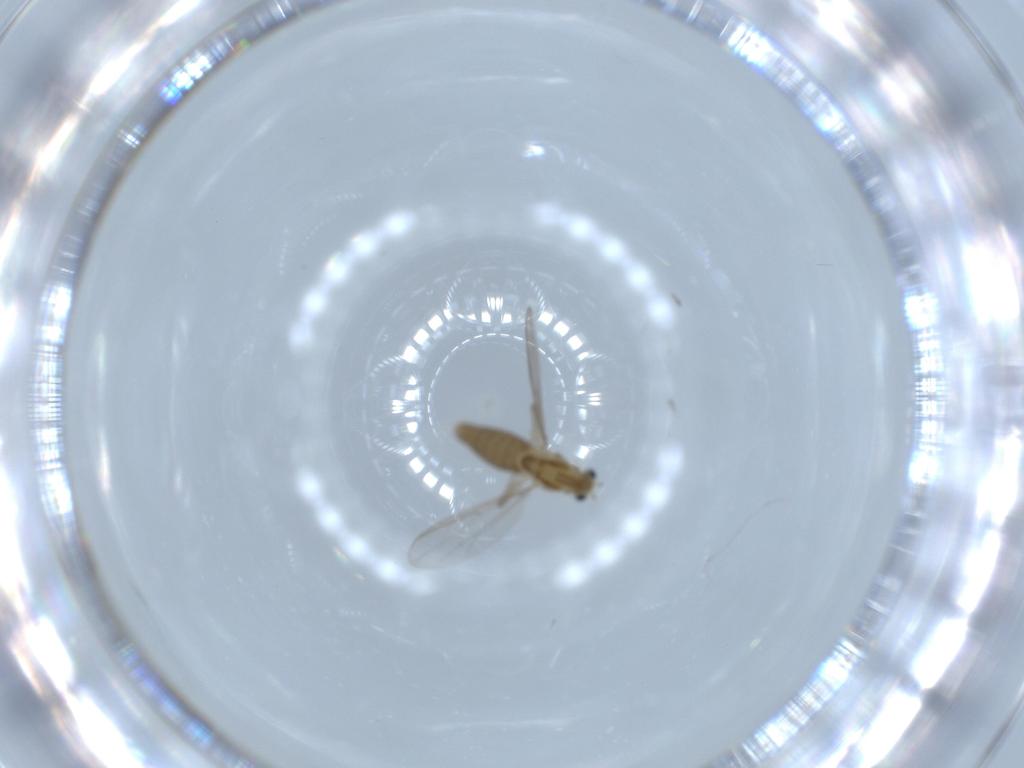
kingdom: Animalia
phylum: Arthropoda
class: Insecta
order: Diptera
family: Chironomidae
